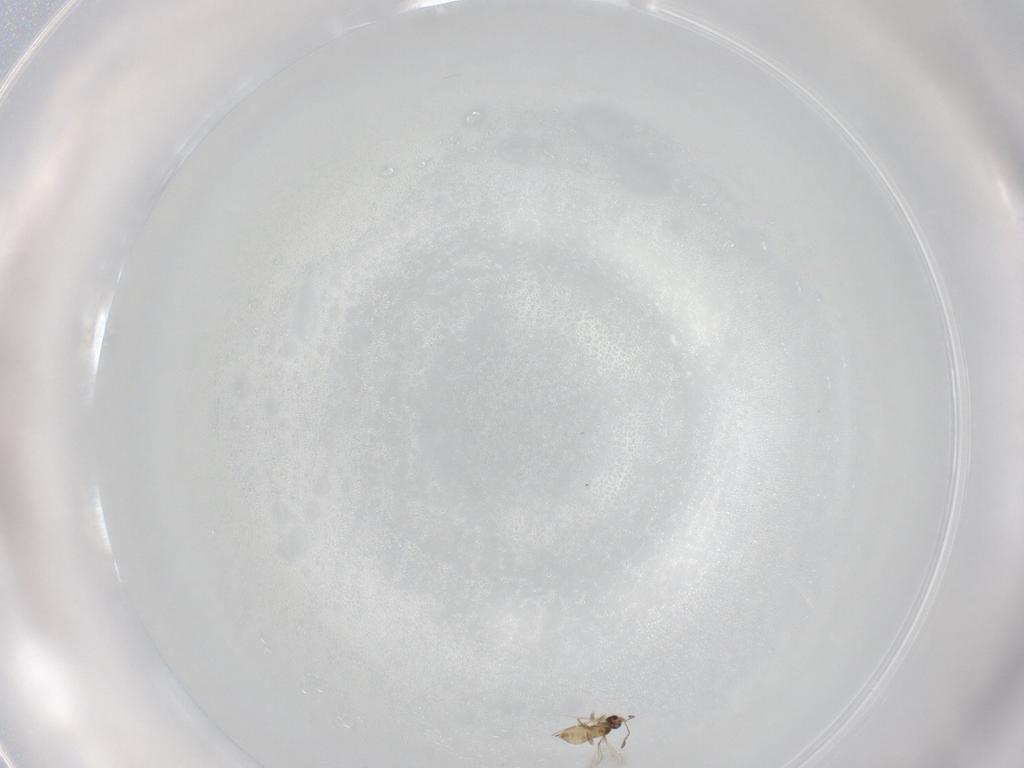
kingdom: Animalia
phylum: Arthropoda
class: Insecta
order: Hymenoptera
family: Mymaridae
